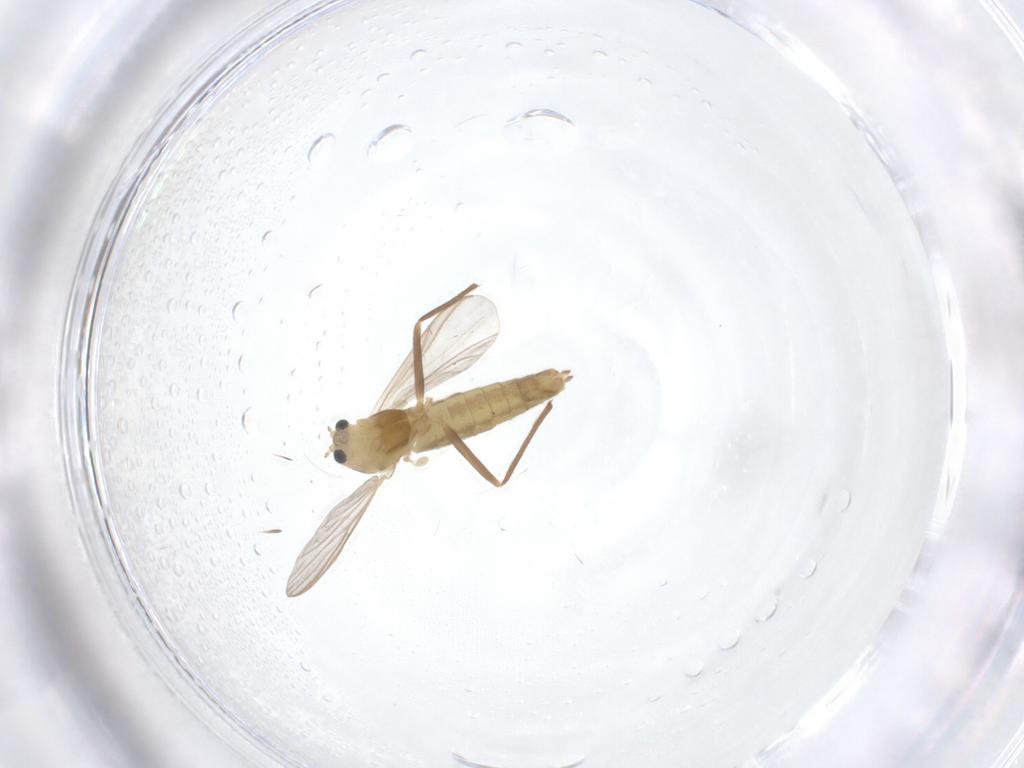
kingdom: Animalia
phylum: Arthropoda
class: Insecta
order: Diptera
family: Chironomidae
